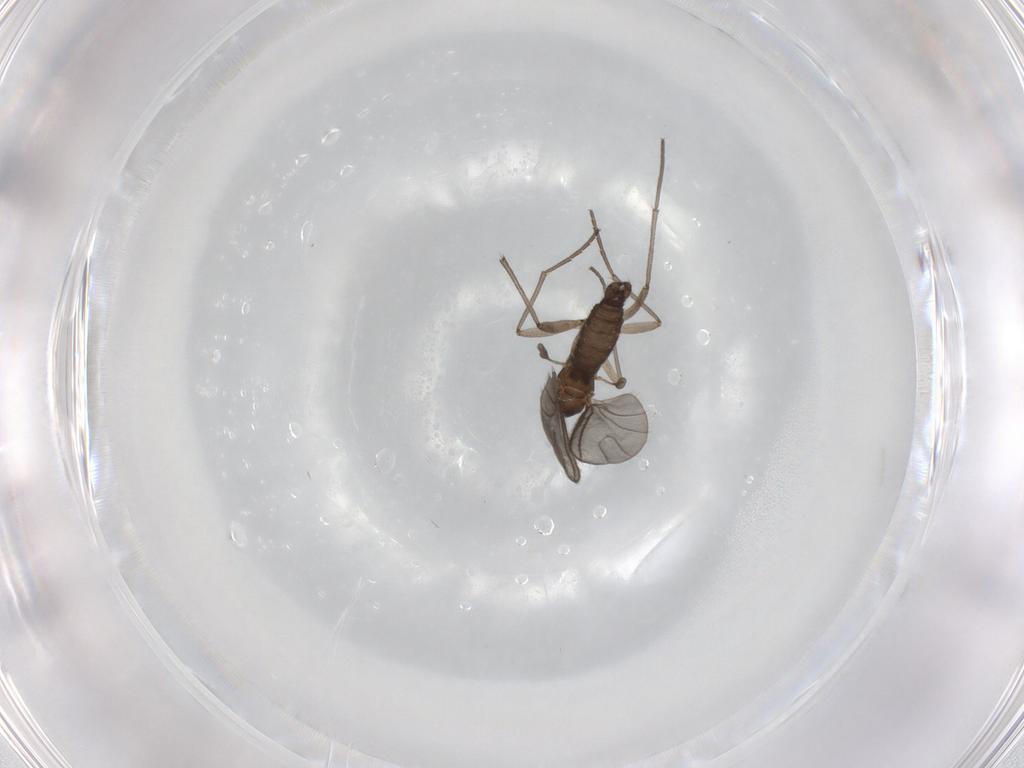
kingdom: Animalia
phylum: Arthropoda
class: Insecta
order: Diptera
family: Sciaridae
